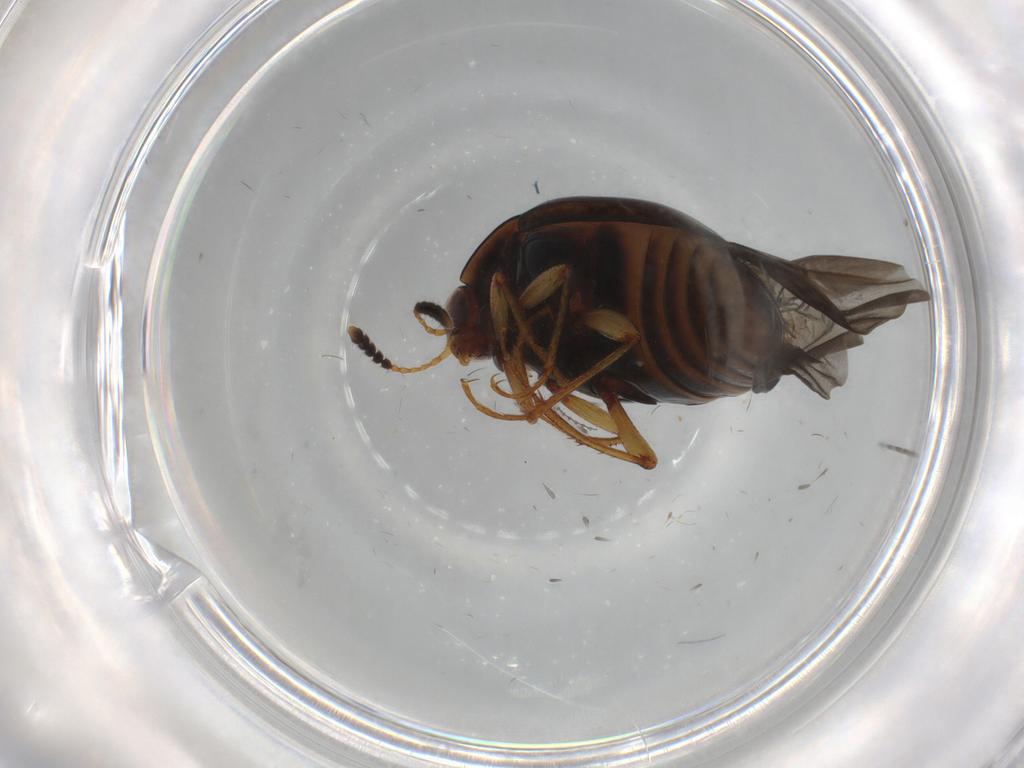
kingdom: Animalia
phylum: Arthropoda
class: Insecta
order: Coleoptera
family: Staphylinidae
